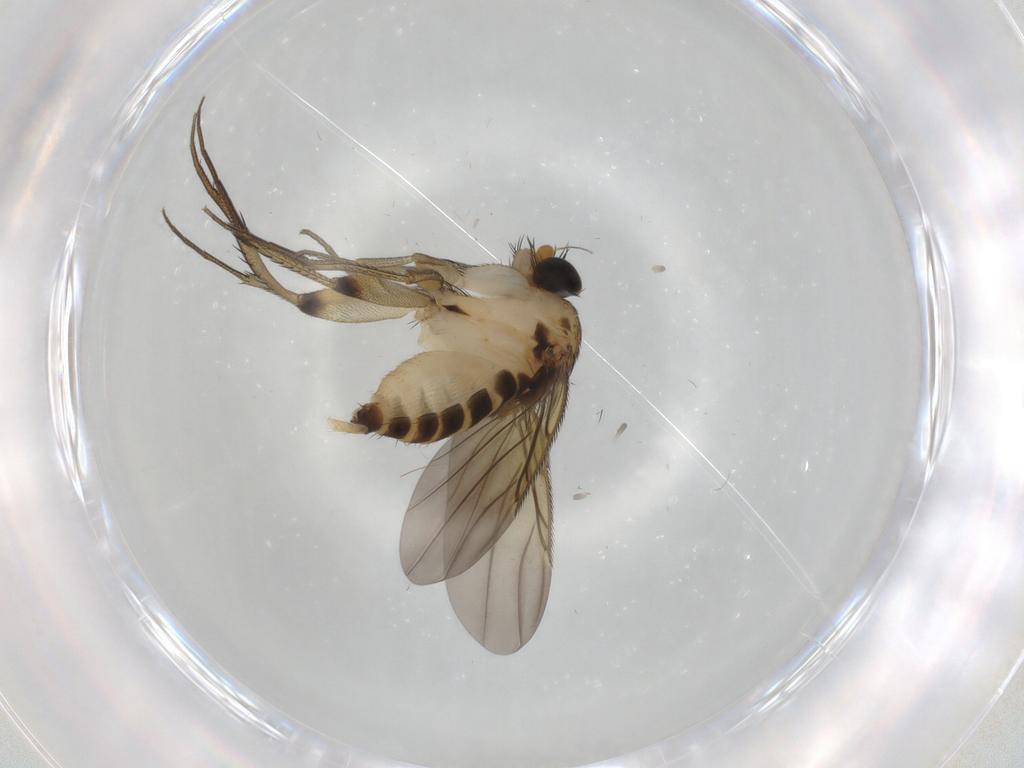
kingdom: Animalia
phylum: Arthropoda
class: Insecta
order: Diptera
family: Phoridae
